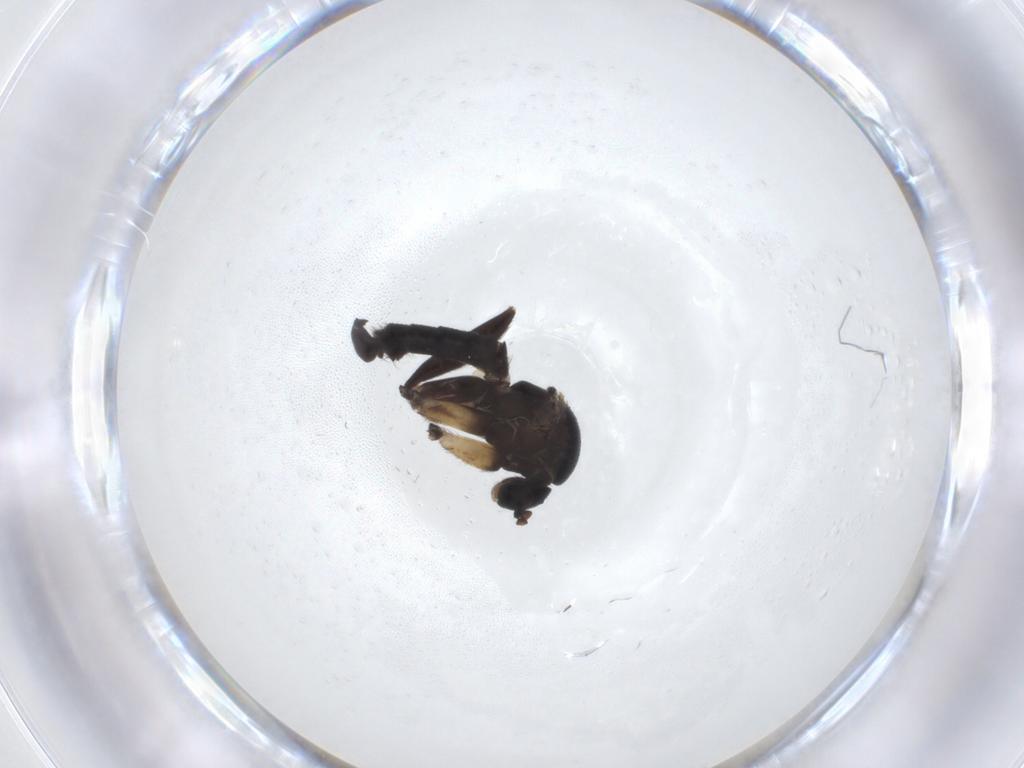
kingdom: Animalia
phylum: Arthropoda
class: Insecta
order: Diptera
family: Mycetophilidae
